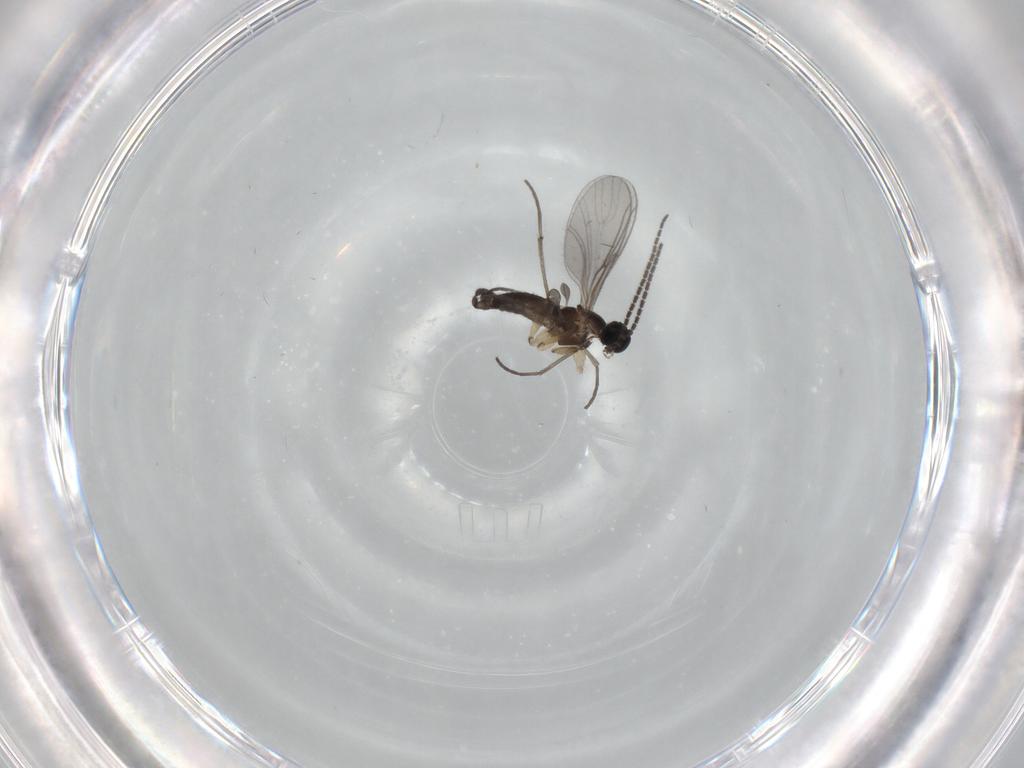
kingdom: Animalia
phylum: Arthropoda
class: Insecta
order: Diptera
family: Sciaridae
